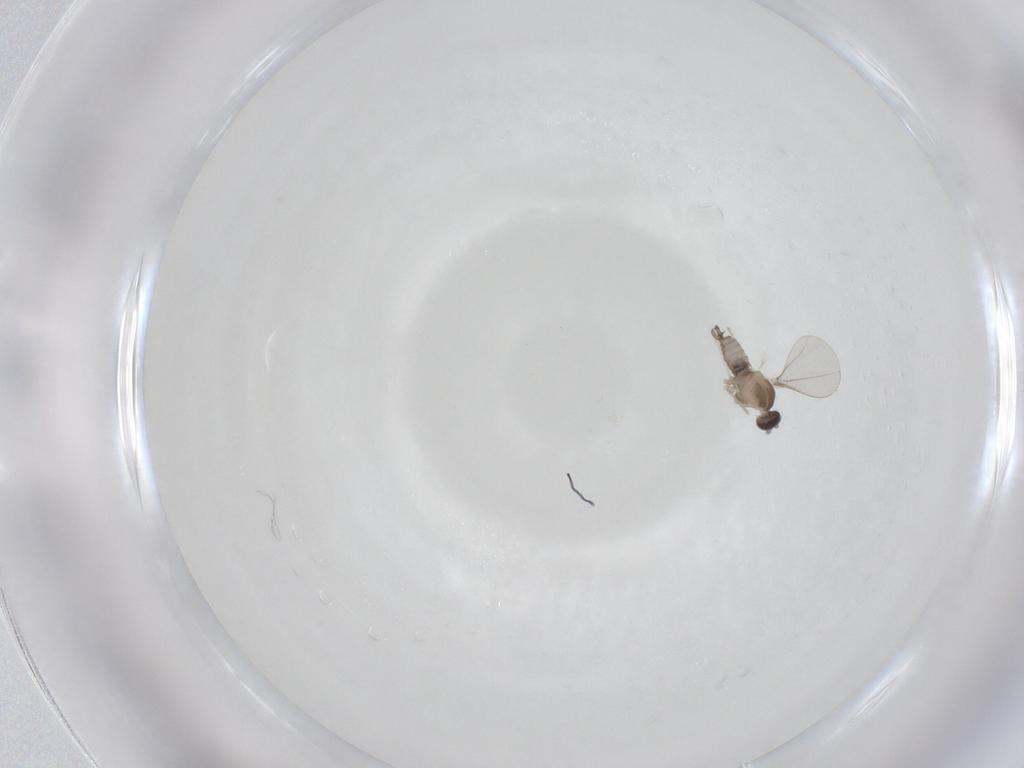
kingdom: Animalia
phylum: Arthropoda
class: Insecta
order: Diptera
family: Cecidomyiidae
